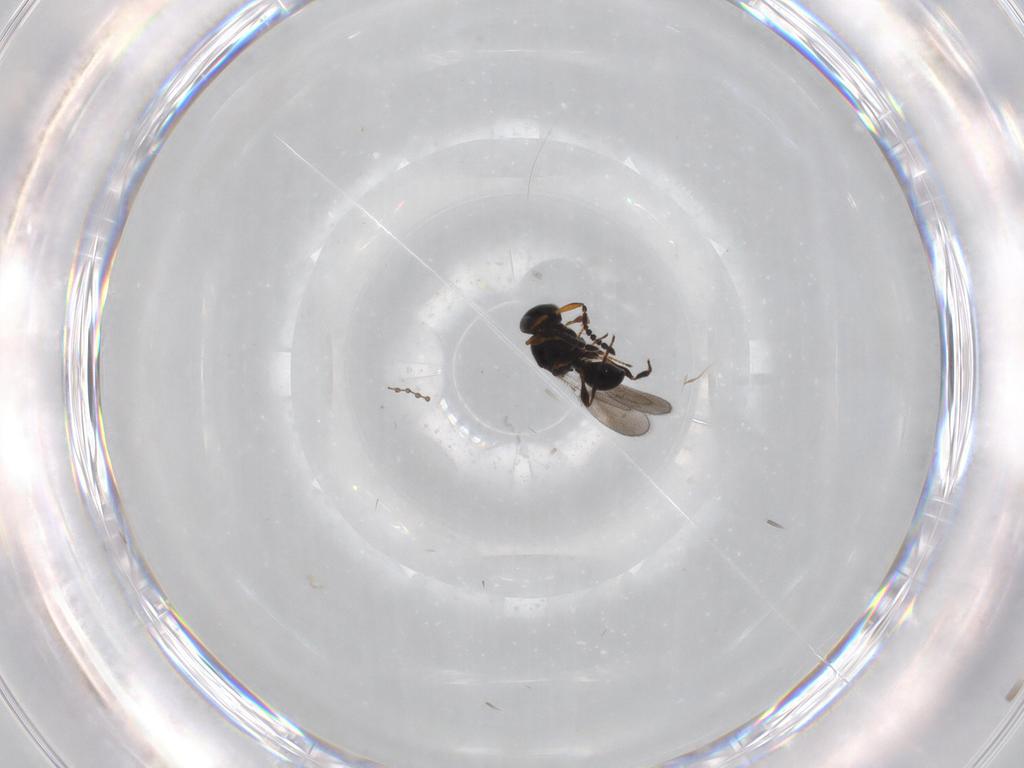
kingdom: Animalia
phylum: Arthropoda
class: Insecta
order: Hymenoptera
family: Platygastridae
